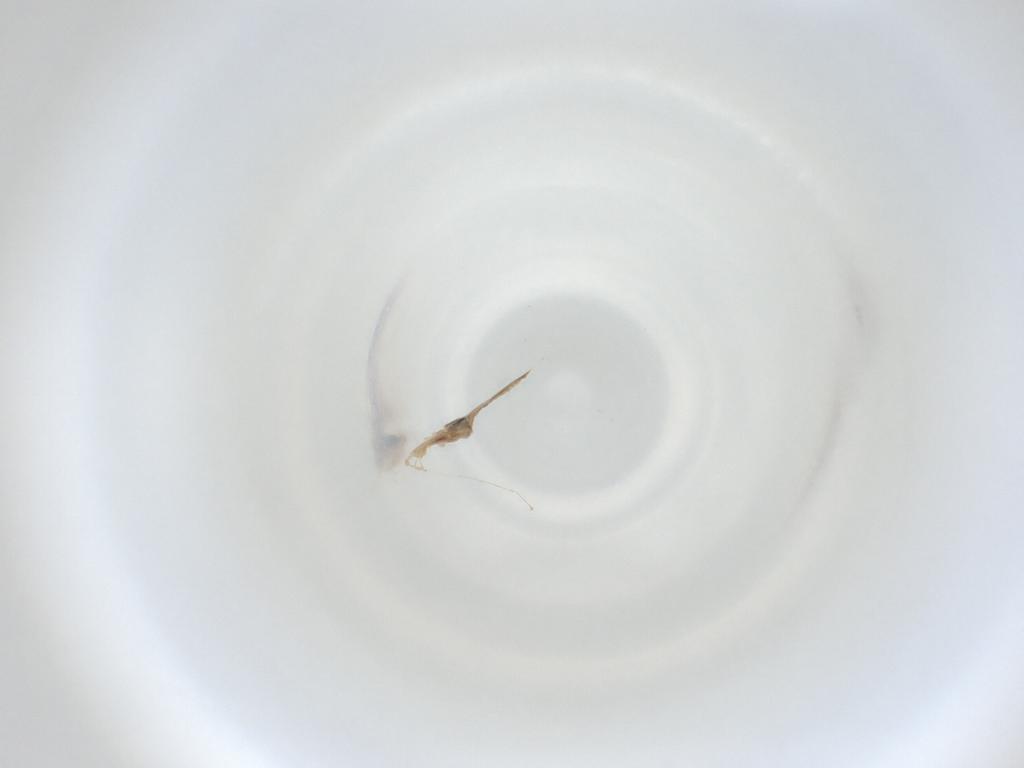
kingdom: Animalia
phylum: Arthropoda
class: Insecta
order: Diptera
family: Cecidomyiidae
